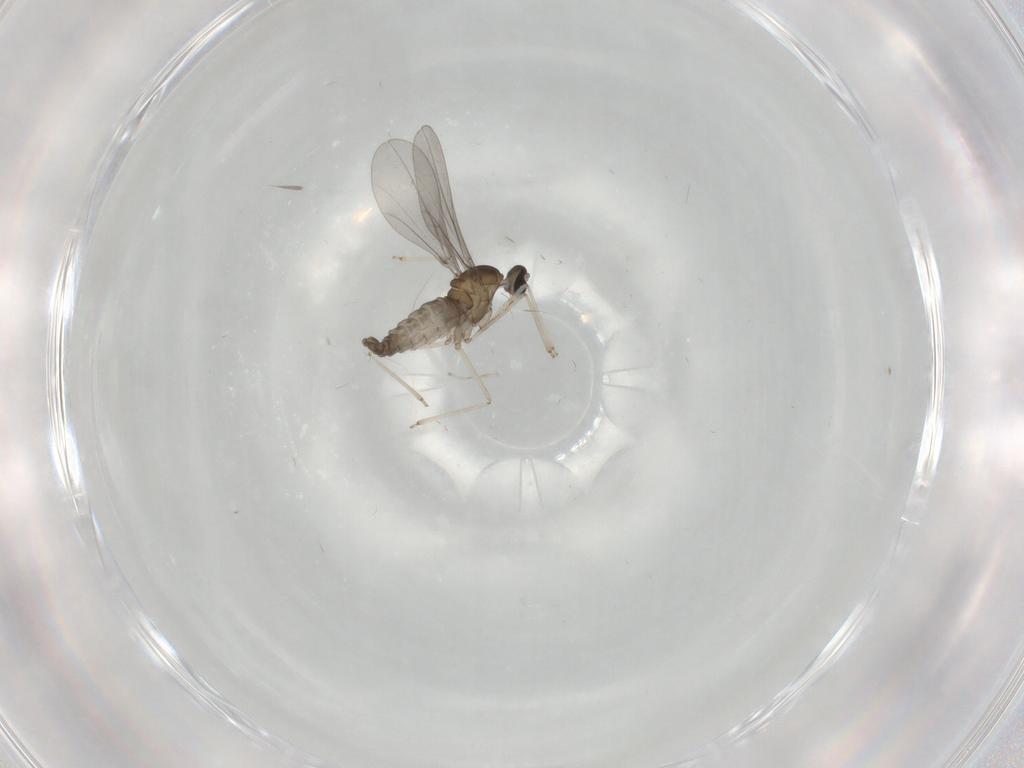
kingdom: Animalia
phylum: Arthropoda
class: Insecta
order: Diptera
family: Cecidomyiidae
